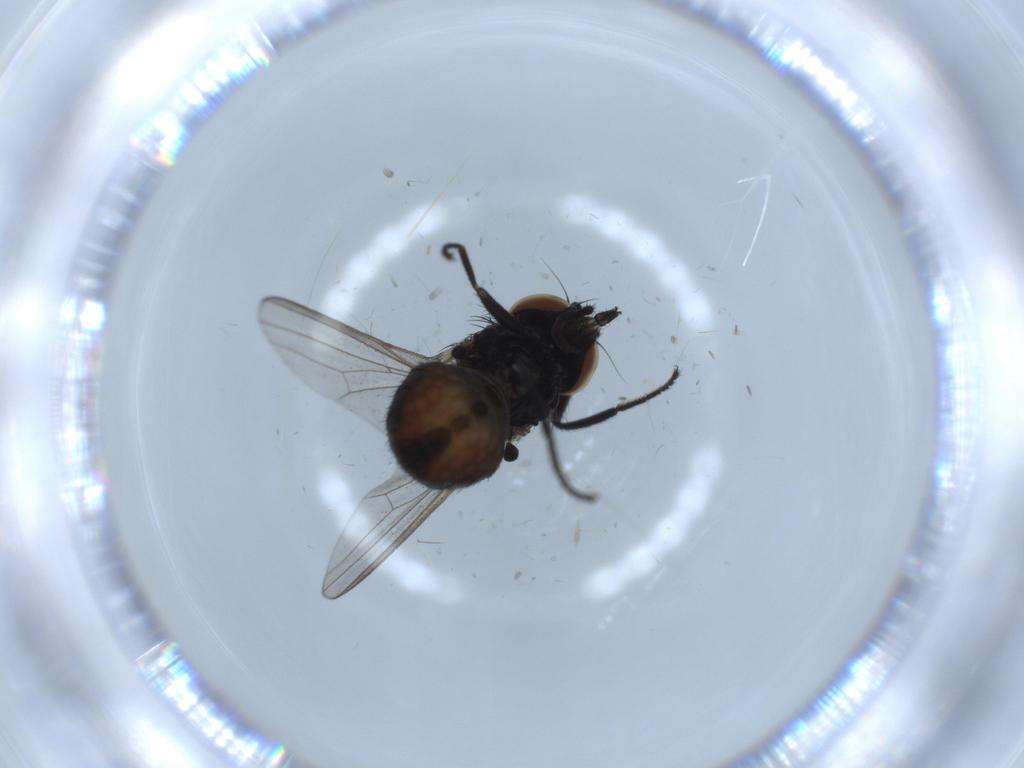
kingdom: Animalia
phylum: Arthropoda
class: Insecta
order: Diptera
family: Milichiidae
